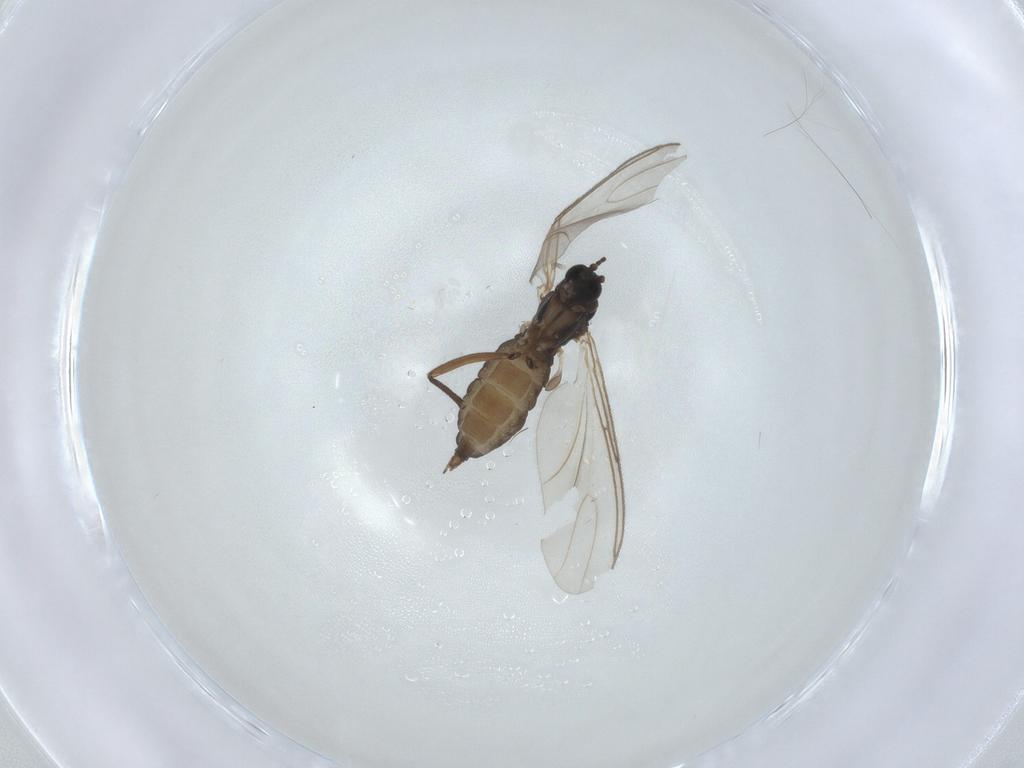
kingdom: Animalia
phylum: Arthropoda
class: Insecta
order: Diptera
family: Sciaridae
